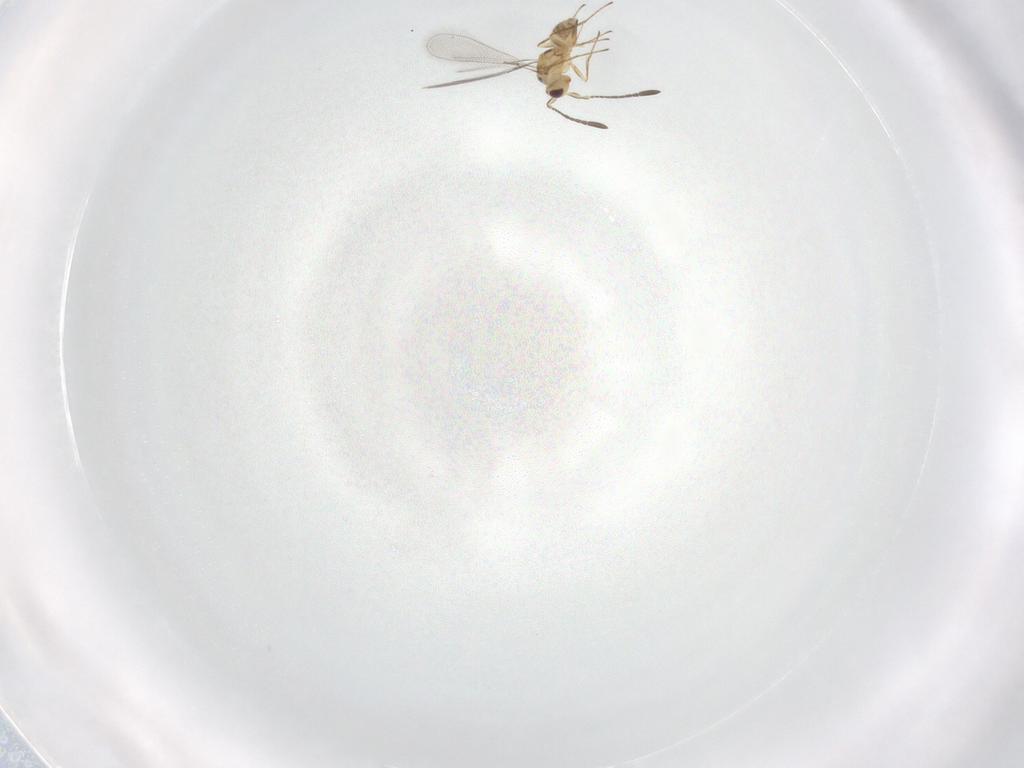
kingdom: Animalia
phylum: Arthropoda
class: Insecta
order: Hymenoptera
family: Mymaridae
